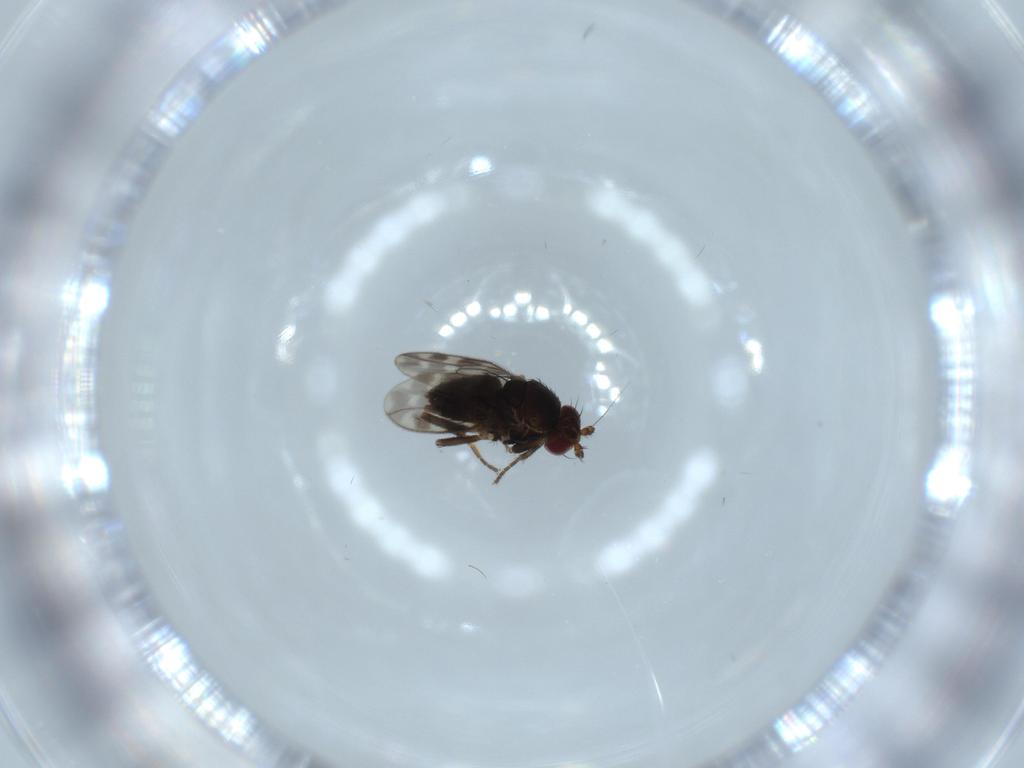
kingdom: Animalia
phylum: Arthropoda
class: Insecta
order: Diptera
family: Sphaeroceridae
